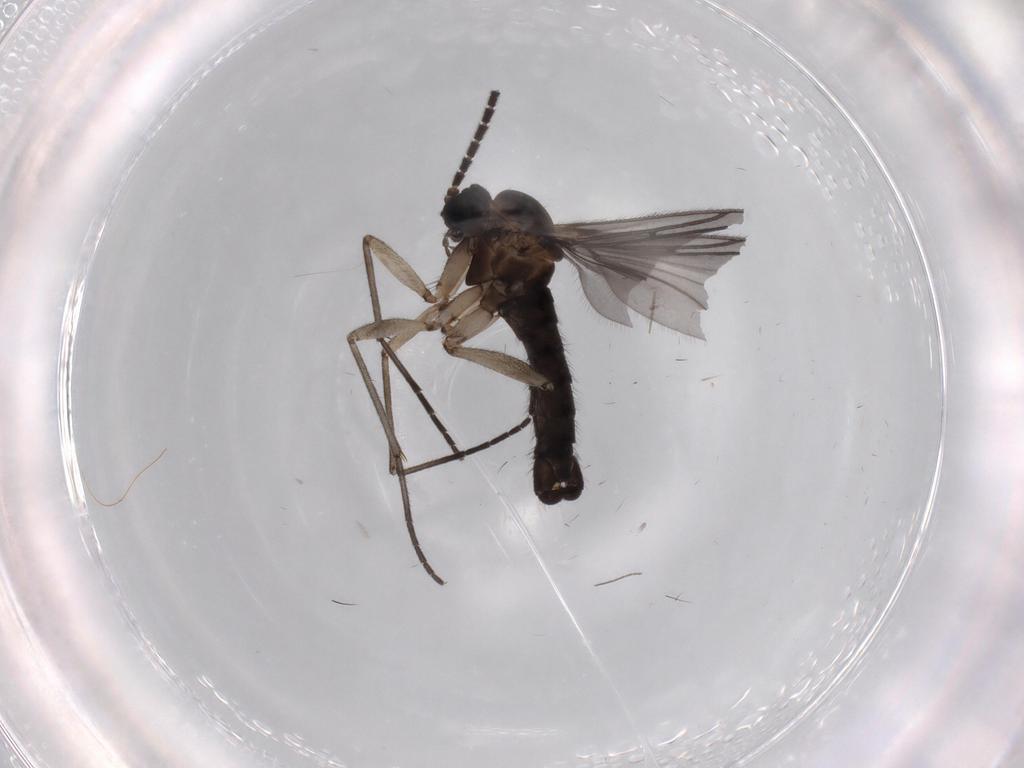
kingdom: Animalia
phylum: Arthropoda
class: Insecta
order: Diptera
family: Sciaridae
